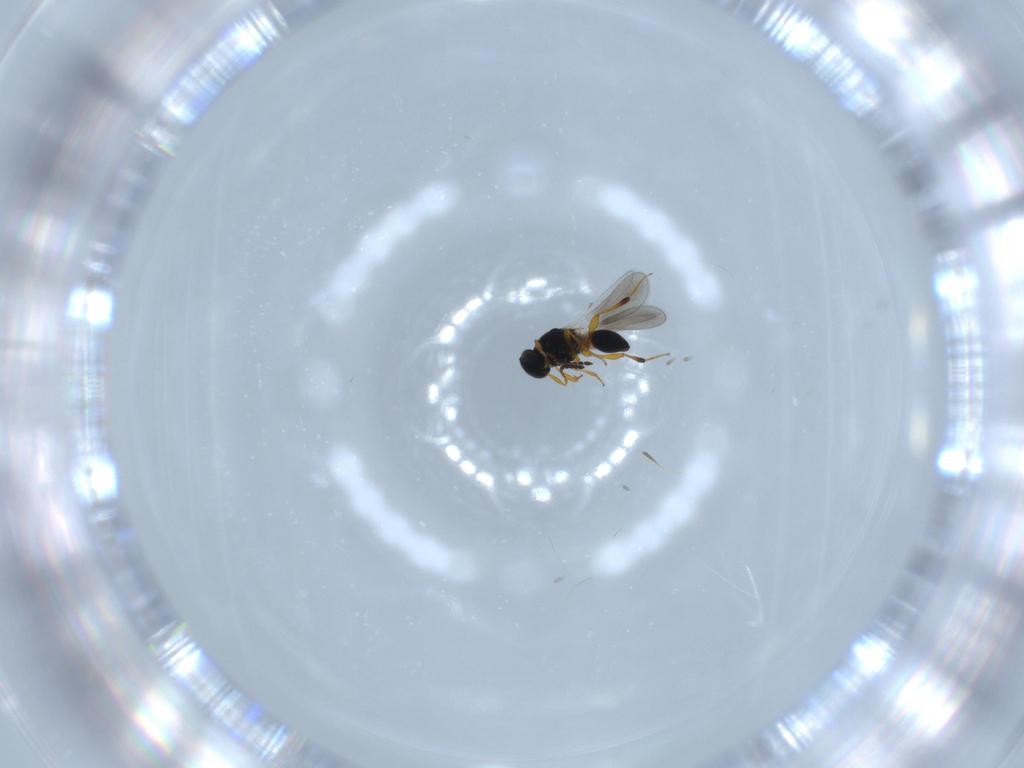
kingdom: Animalia
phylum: Arthropoda
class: Insecta
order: Hymenoptera
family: Platygastridae
